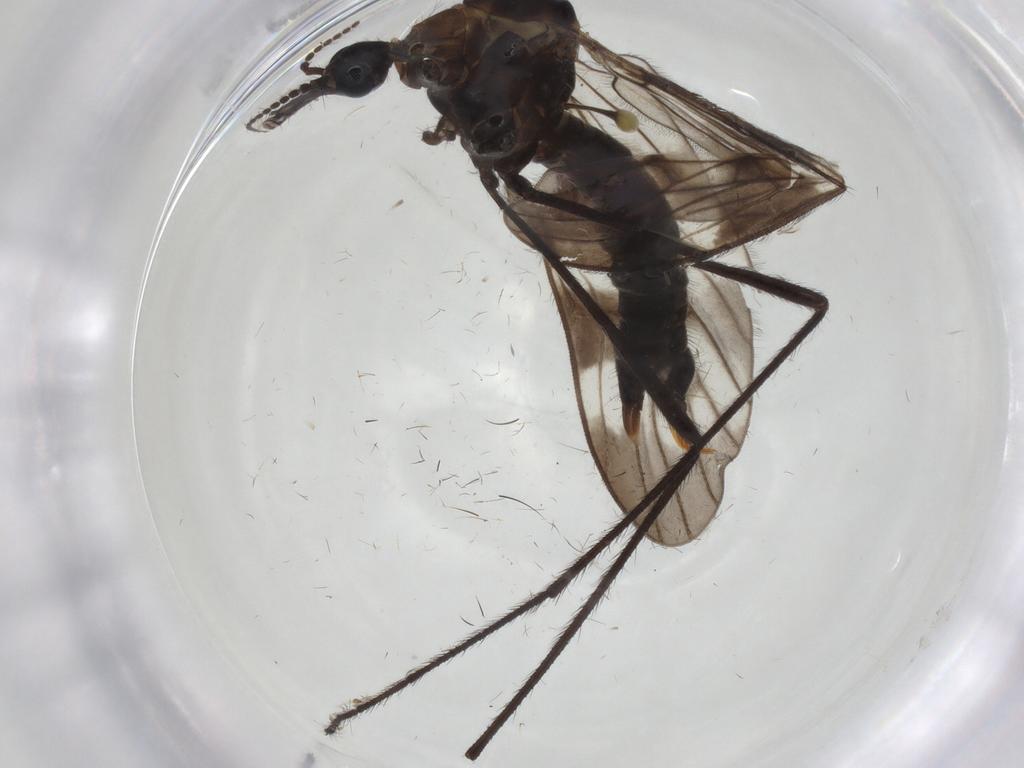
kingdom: Animalia
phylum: Arthropoda
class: Insecta
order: Diptera
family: Limoniidae
